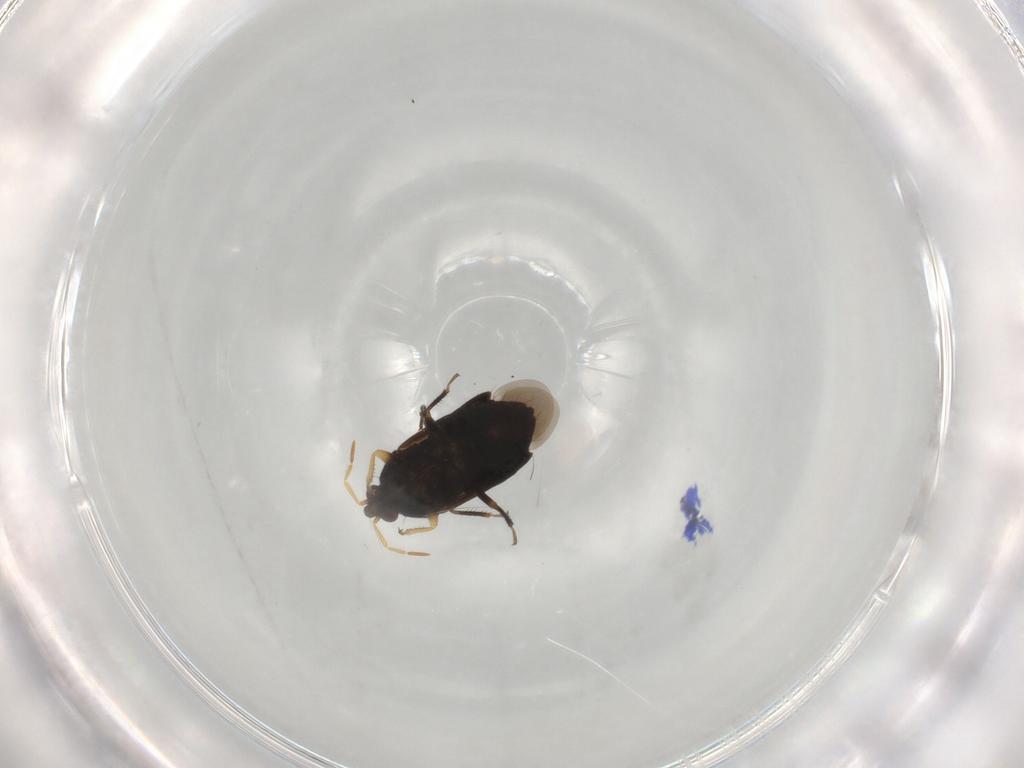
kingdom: Animalia
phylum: Arthropoda
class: Insecta
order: Hemiptera
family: Anthocoridae
